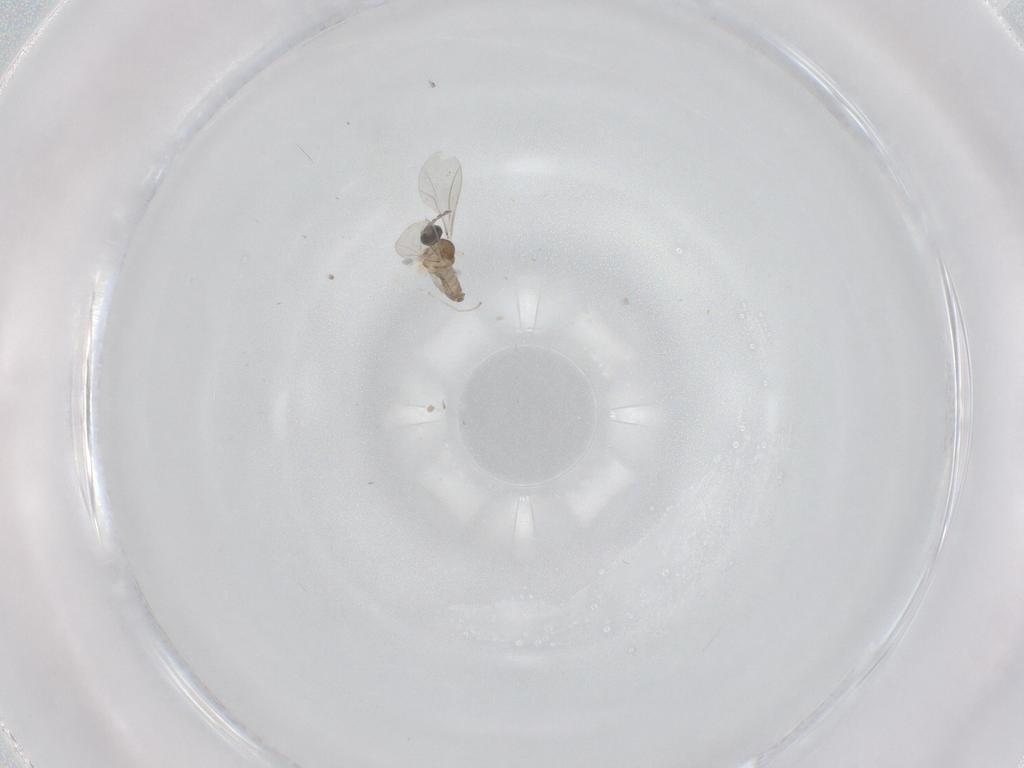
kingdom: Animalia
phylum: Arthropoda
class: Insecta
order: Diptera
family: Cecidomyiidae
